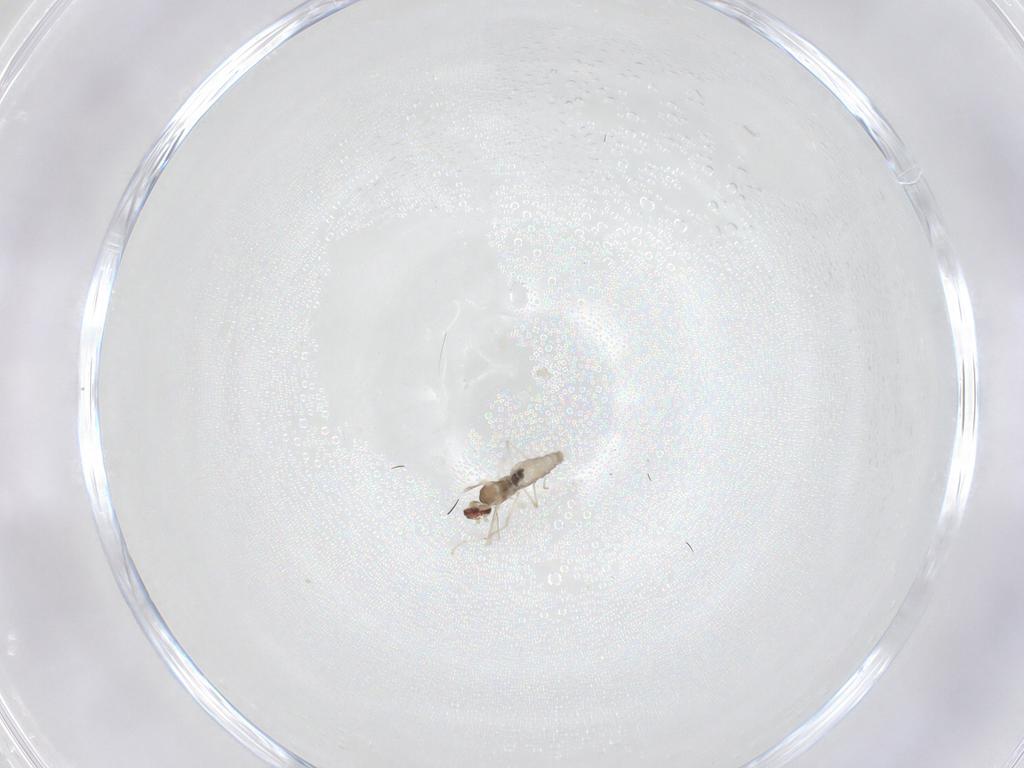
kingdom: Animalia
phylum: Arthropoda
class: Insecta
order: Diptera
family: Cecidomyiidae
